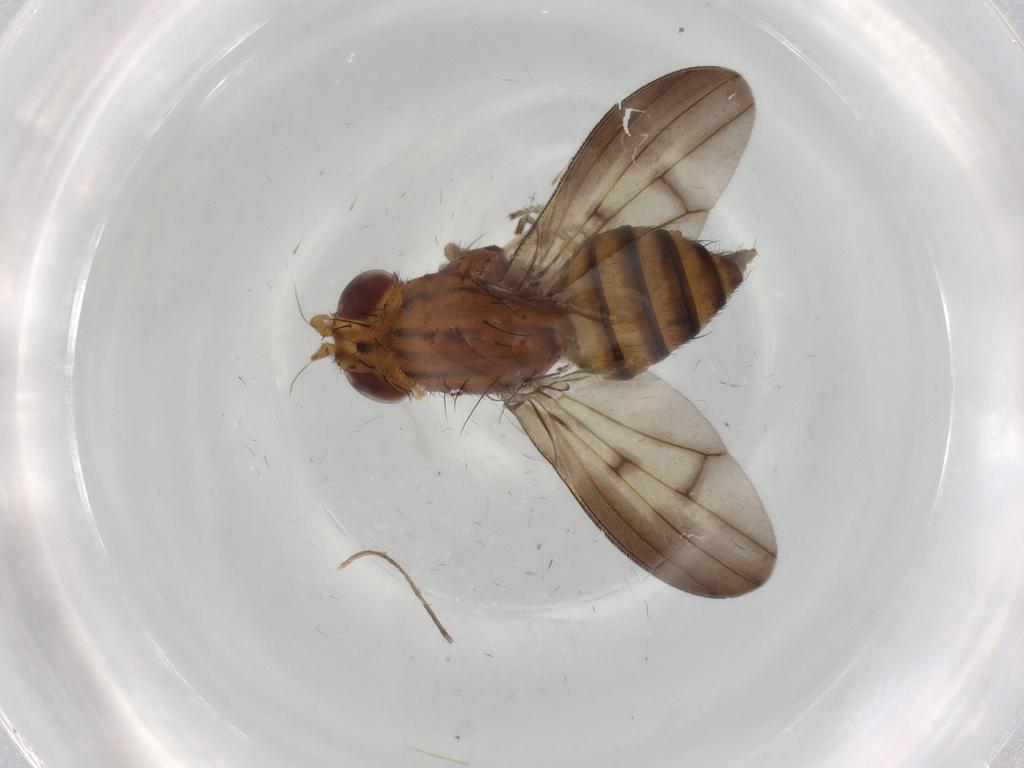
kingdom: Animalia
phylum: Arthropoda
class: Insecta
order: Diptera
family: Lauxaniidae
